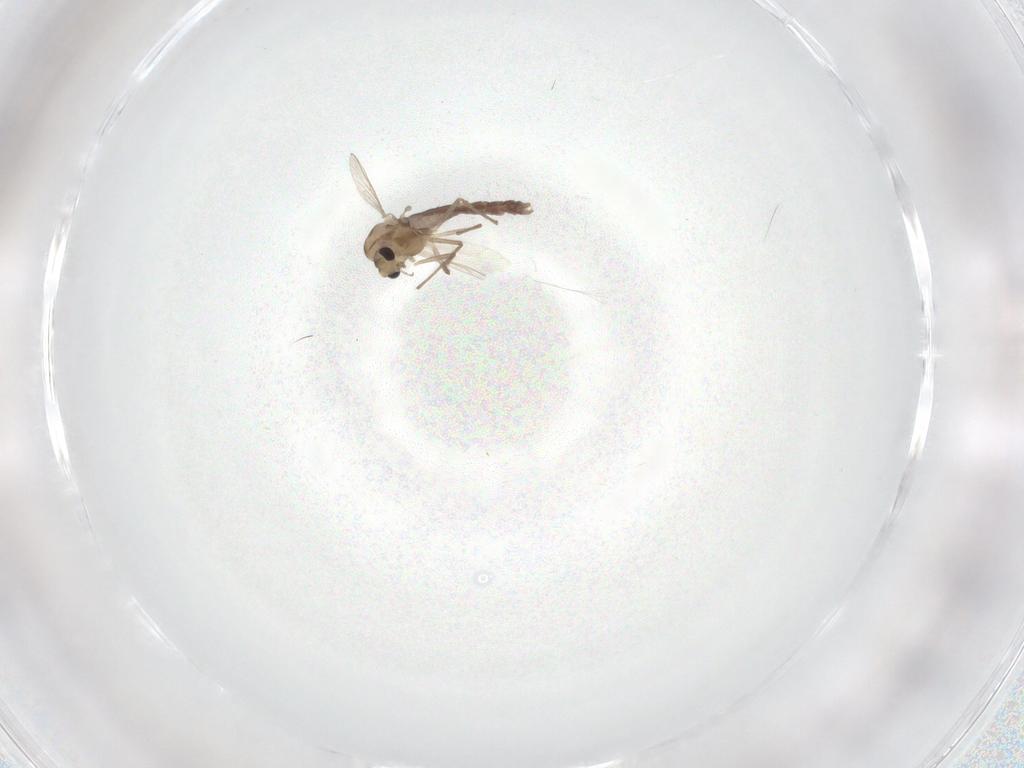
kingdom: Animalia
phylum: Arthropoda
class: Insecta
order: Diptera
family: Chironomidae
